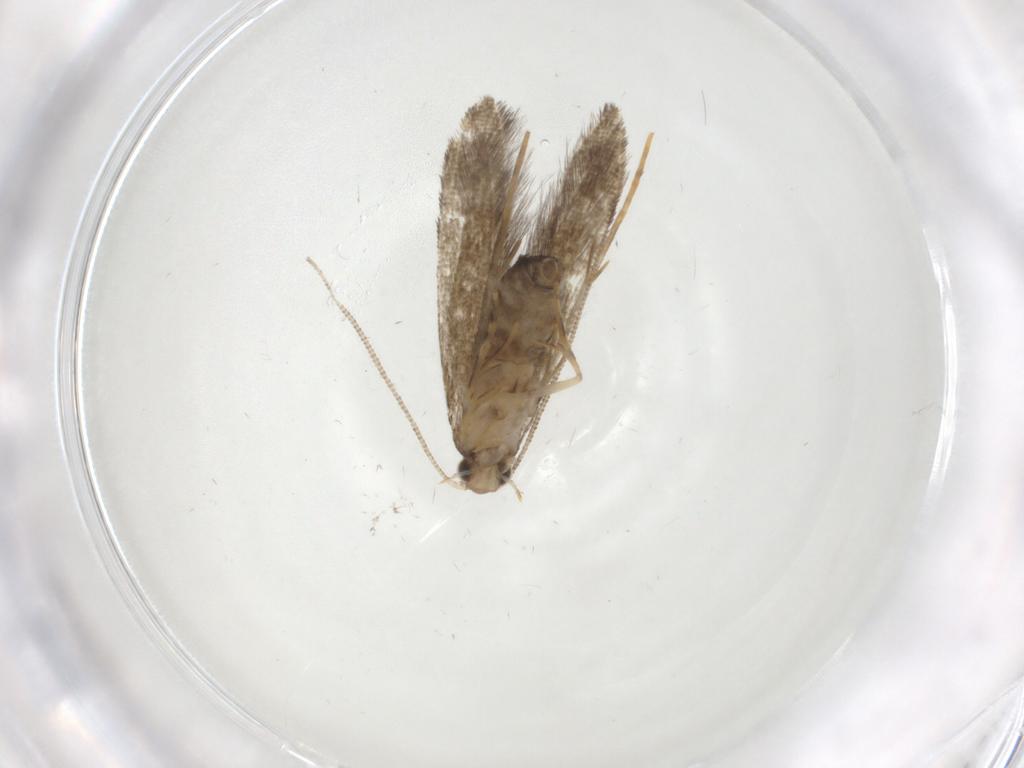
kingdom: Animalia
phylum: Arthropoda
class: Insecta
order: Lepidoptera
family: Tineidae
